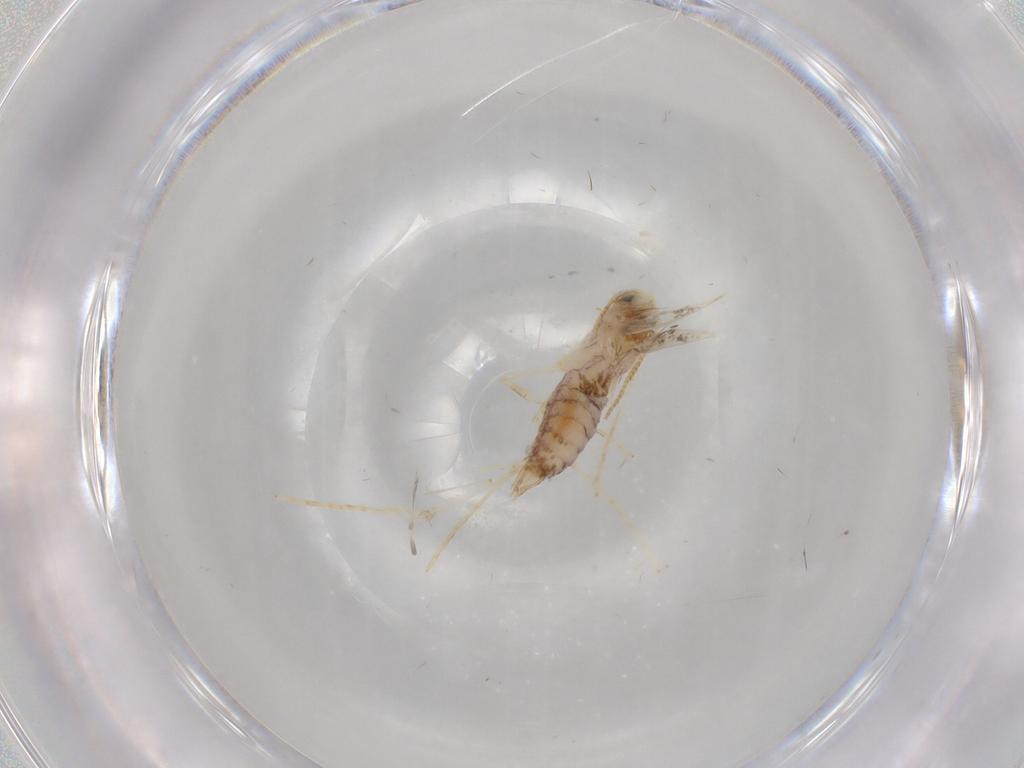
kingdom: Animalia
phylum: Arthropoda
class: Insecta
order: Lepidoptera
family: Lyonetiidae
